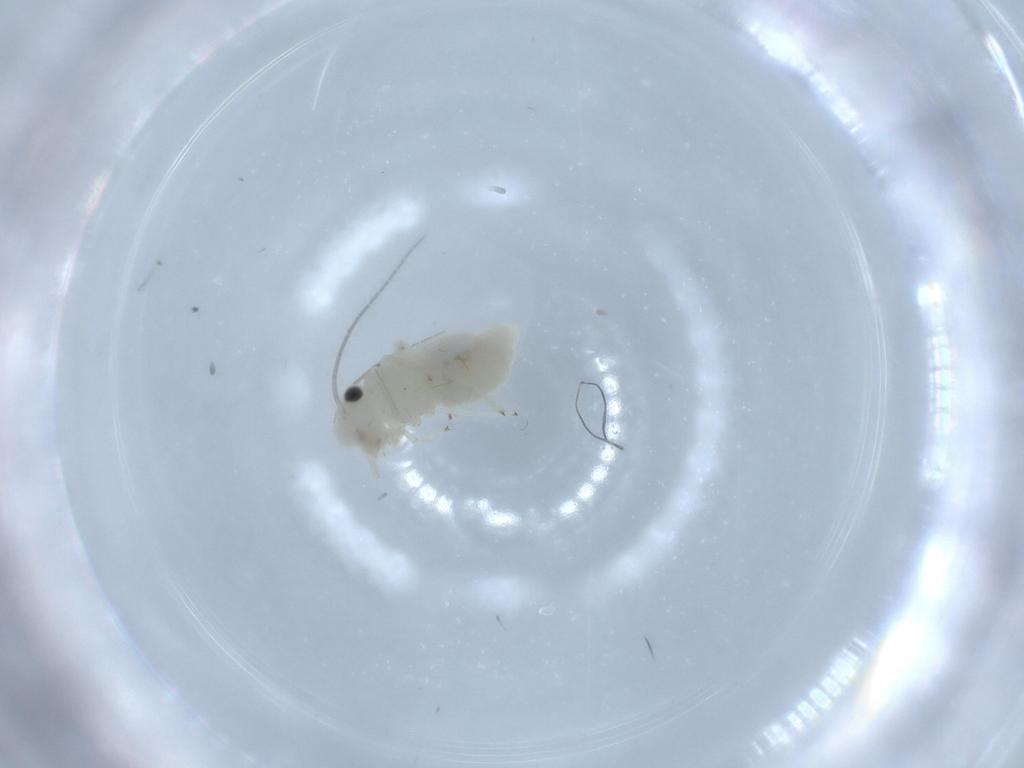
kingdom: Animalia
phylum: Arthropoda
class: Insecta
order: Psocodea
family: Caeciliusidae
